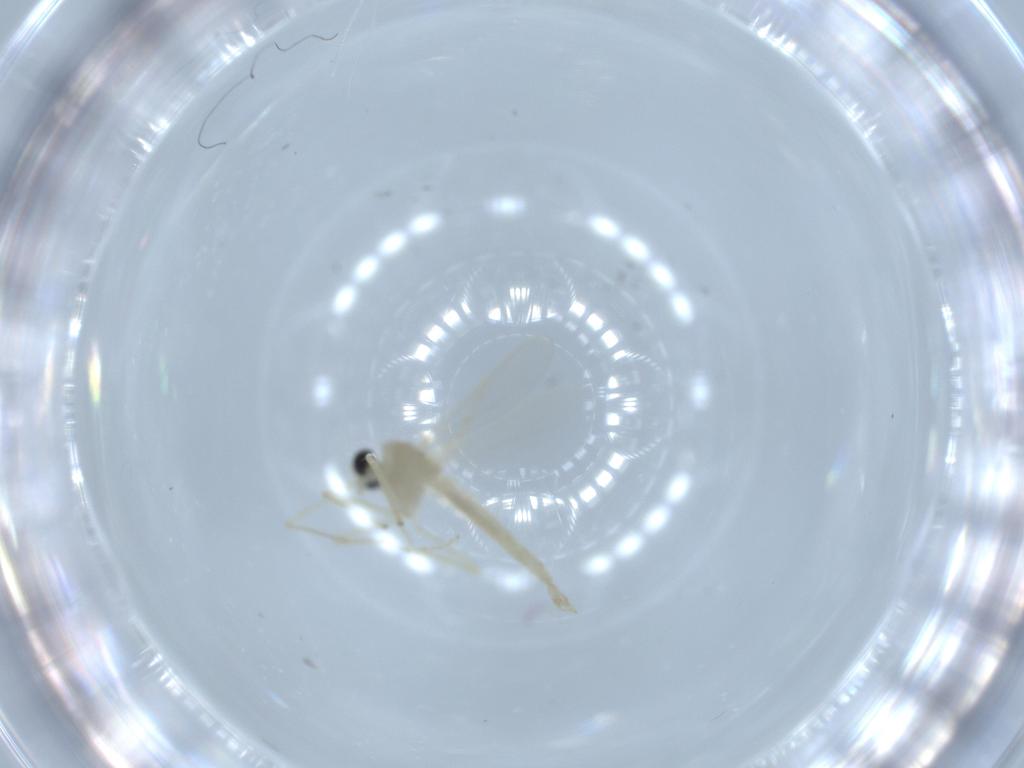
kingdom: Animalia
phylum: Arthropoda
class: Insecta
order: Diptera
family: Chironomidae
